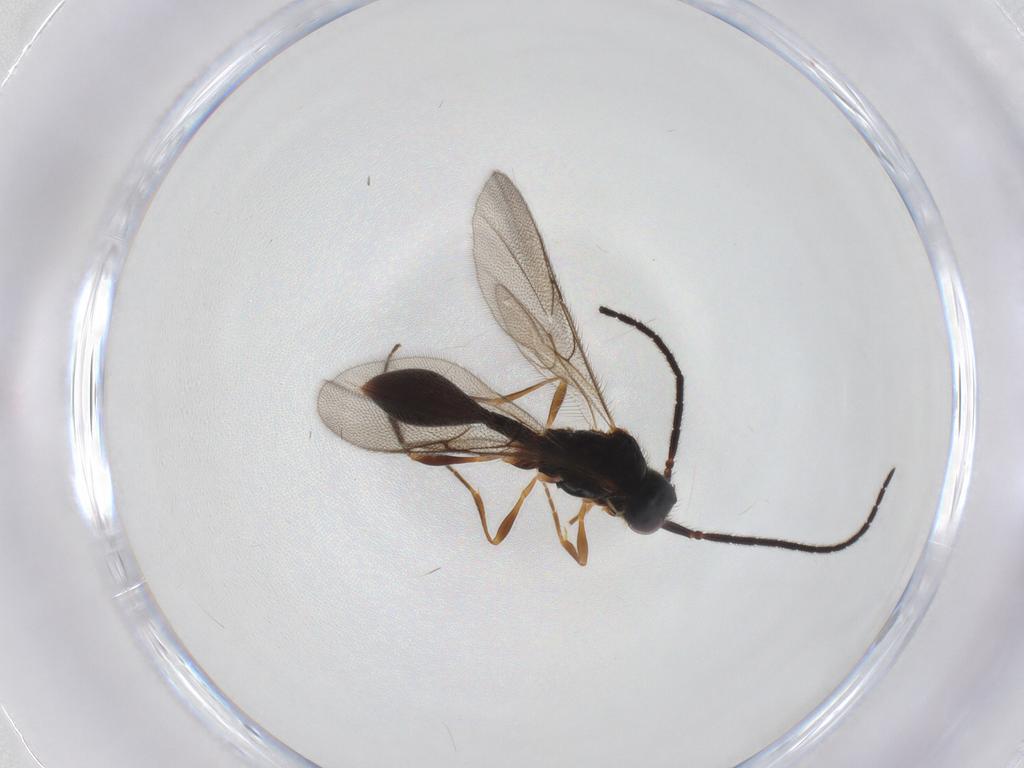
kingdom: Animalia
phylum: Arthropoda
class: Insecta
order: Hymenoptera
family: Diapriidae
